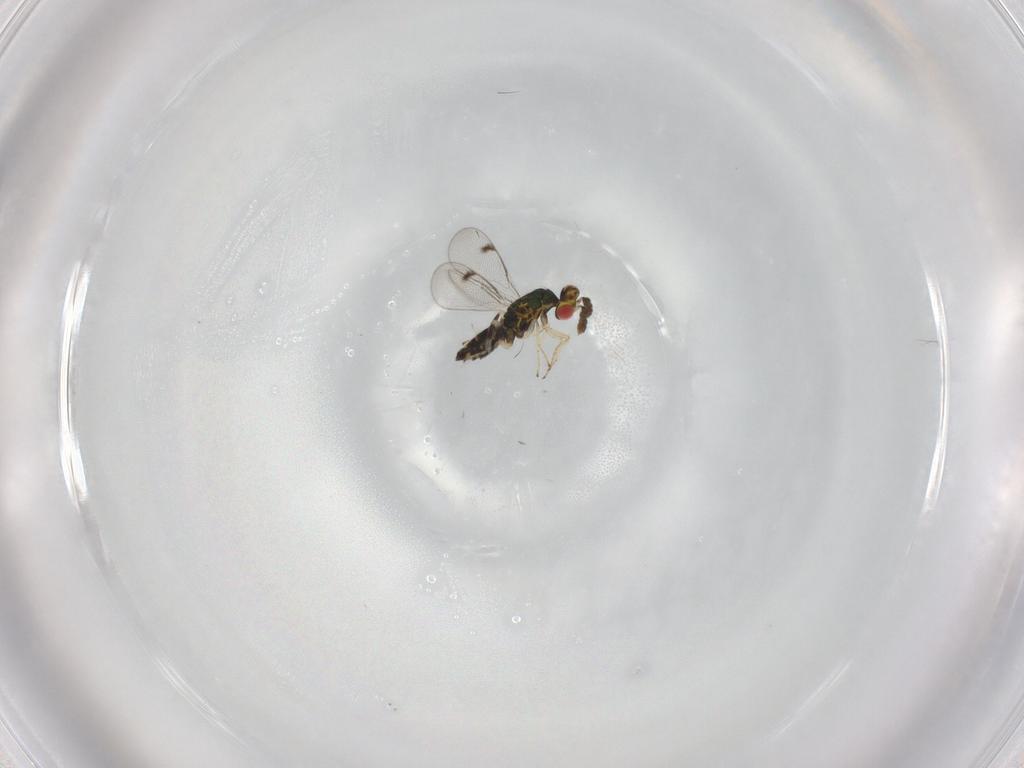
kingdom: Animalia
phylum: Arthropoda
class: Insecta
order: Hymenoptera
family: Eulophidae
